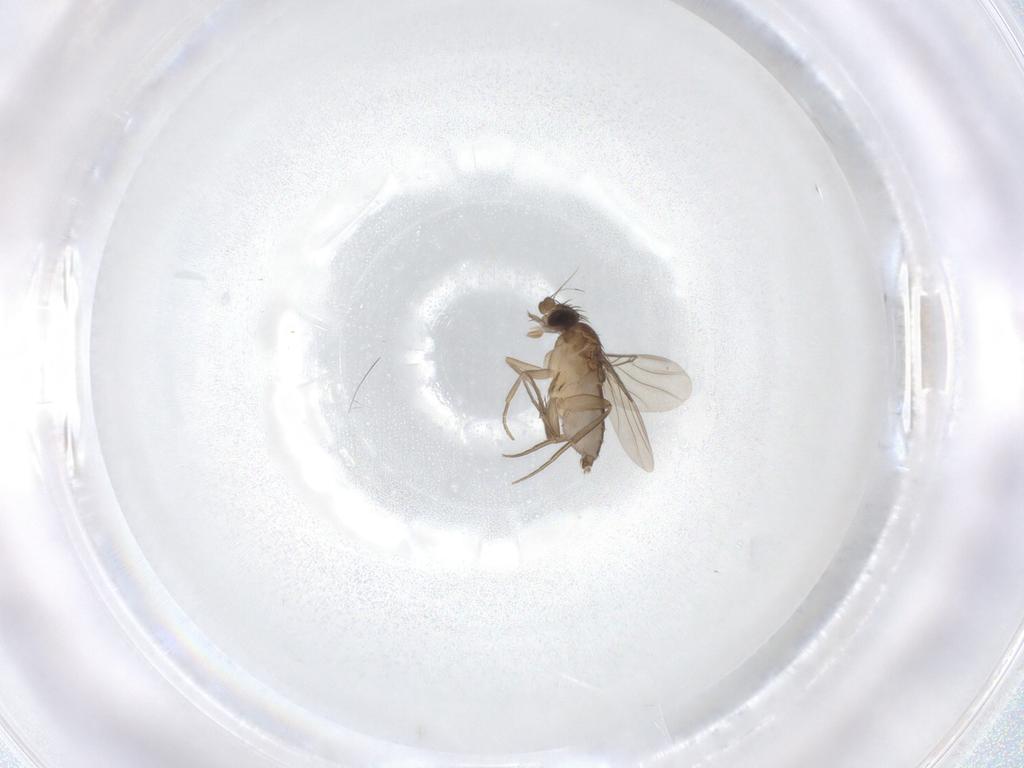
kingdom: Animalia
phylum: Arthropoda
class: Insecta
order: Diptera
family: Phoridae
